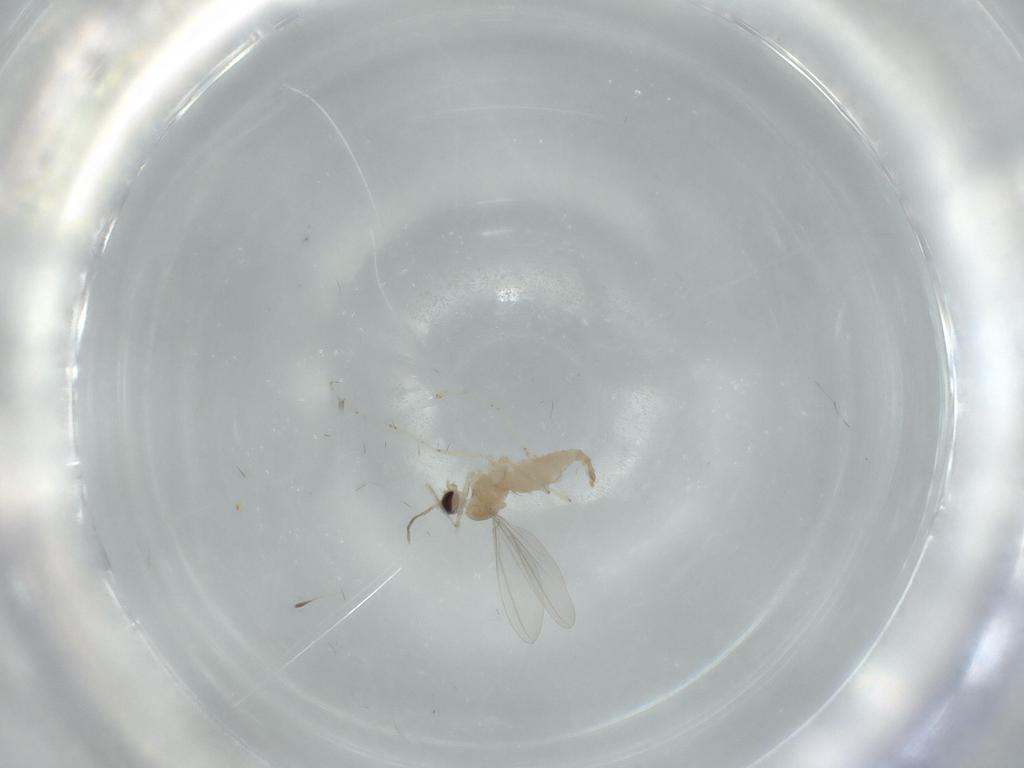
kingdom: Animalia
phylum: Arthropoda
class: Insecta
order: Diptera
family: Cecidomyiidae
